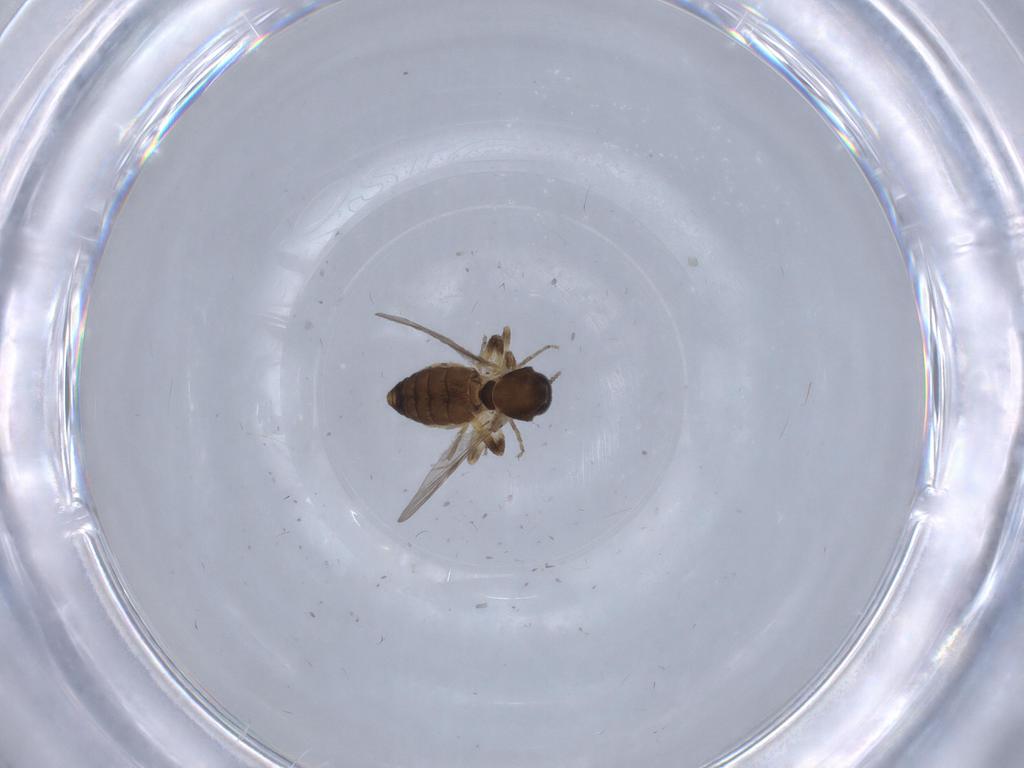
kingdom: Animalia
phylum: Arthropoda
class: Insecta
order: Diptera
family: Ceratopogonidae
